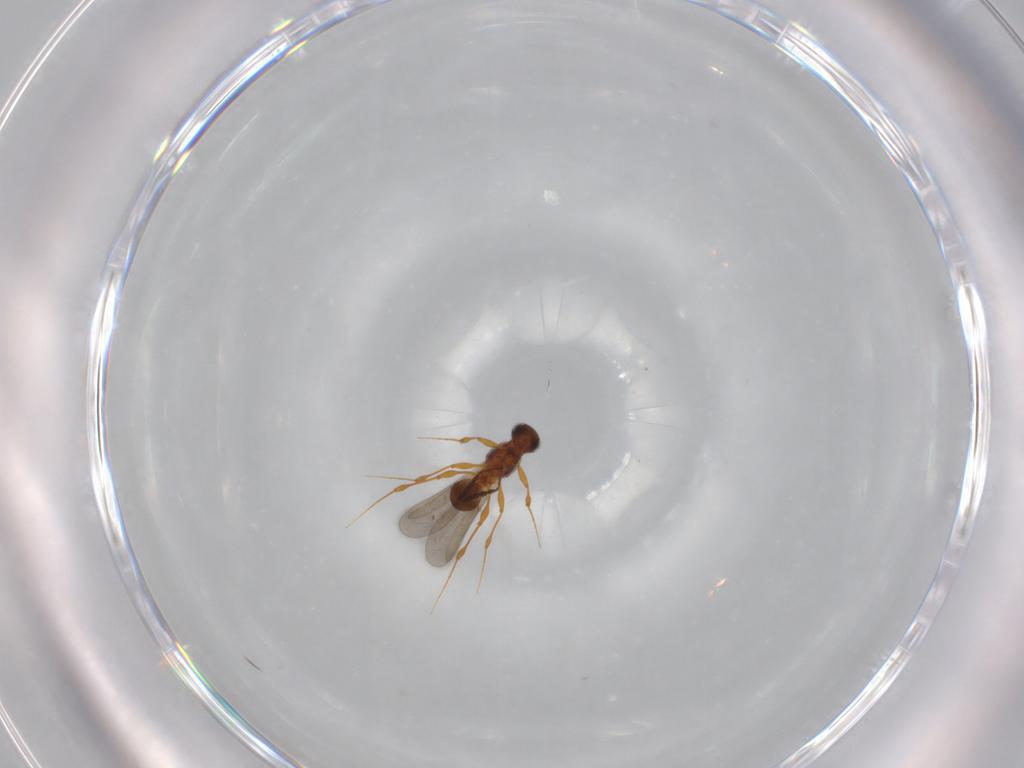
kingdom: Animalia
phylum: Arthropoda
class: Insecta
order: Hymenoptera
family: Platygastridae
